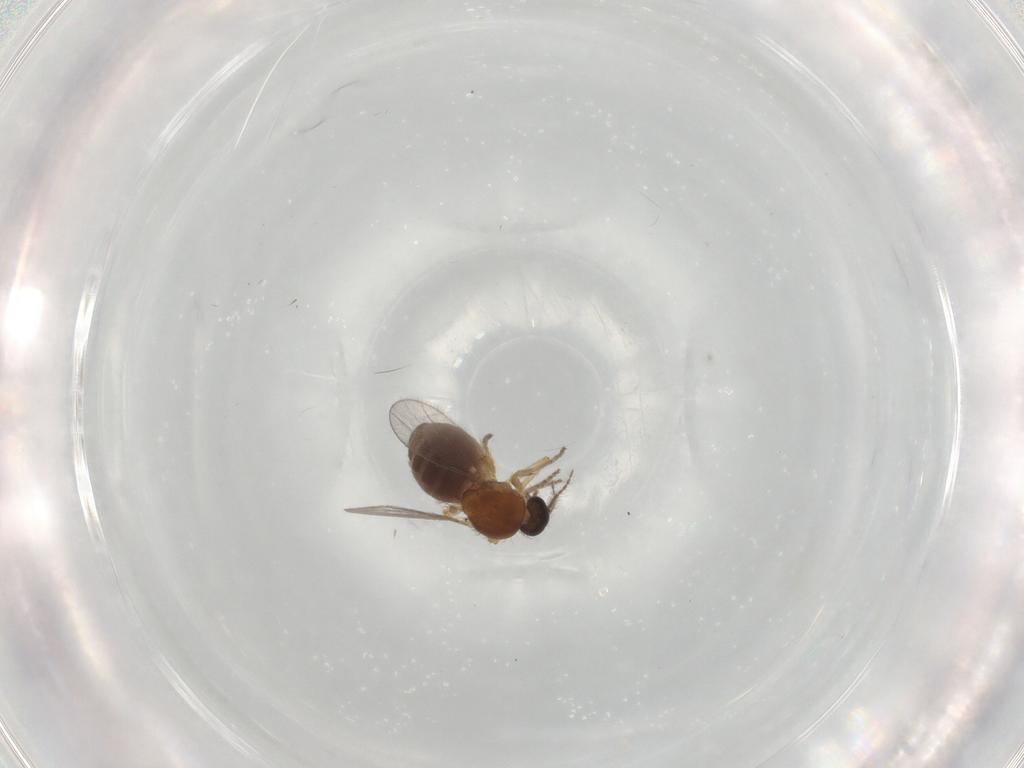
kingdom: Animalia
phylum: Arthropoda
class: Insecta
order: Diptera
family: Sciaridae
